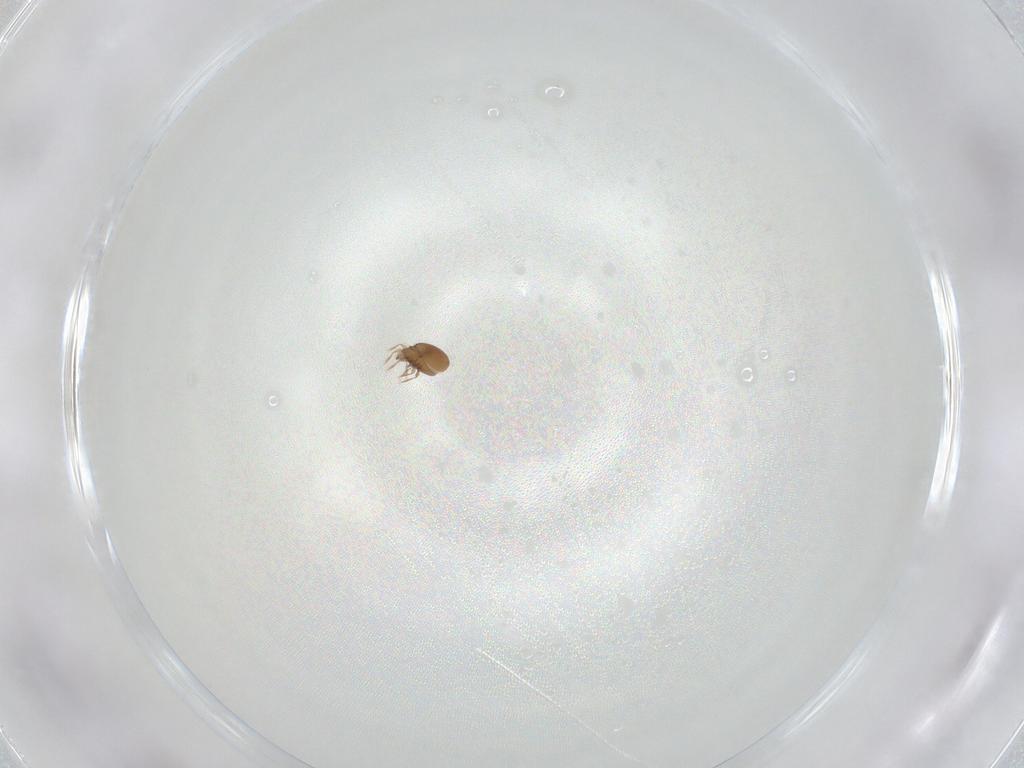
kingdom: Animalia
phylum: Arthropoda
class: Arachnida
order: Sarcoptiformes
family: Oribatulidae
